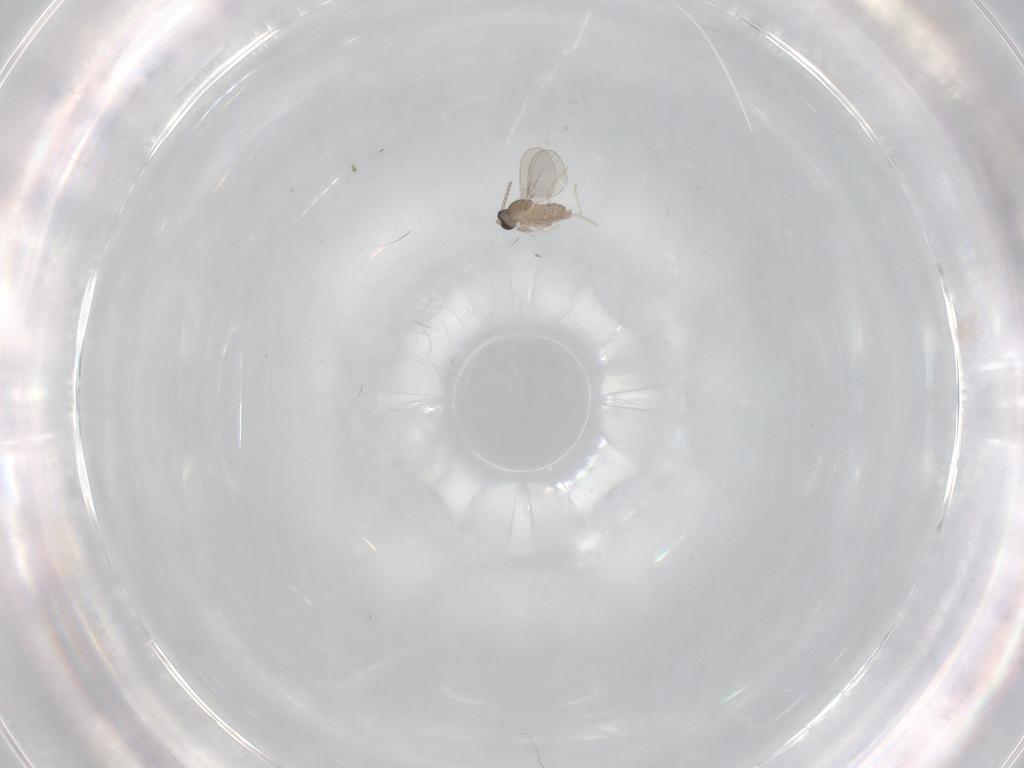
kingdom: Animalia
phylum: Arthropoda
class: Insecta
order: Diptera
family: Cecidomyiidae
